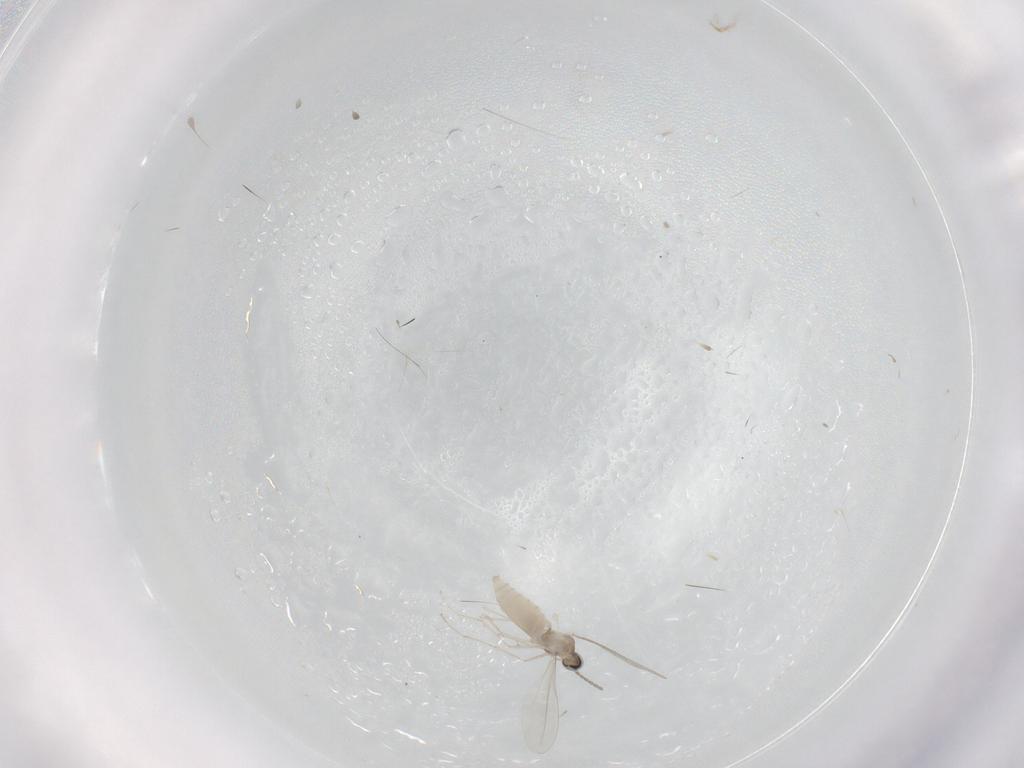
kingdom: Animalia
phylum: Arthropoda
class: Insecta
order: Diptera
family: Cecidomyiidae
